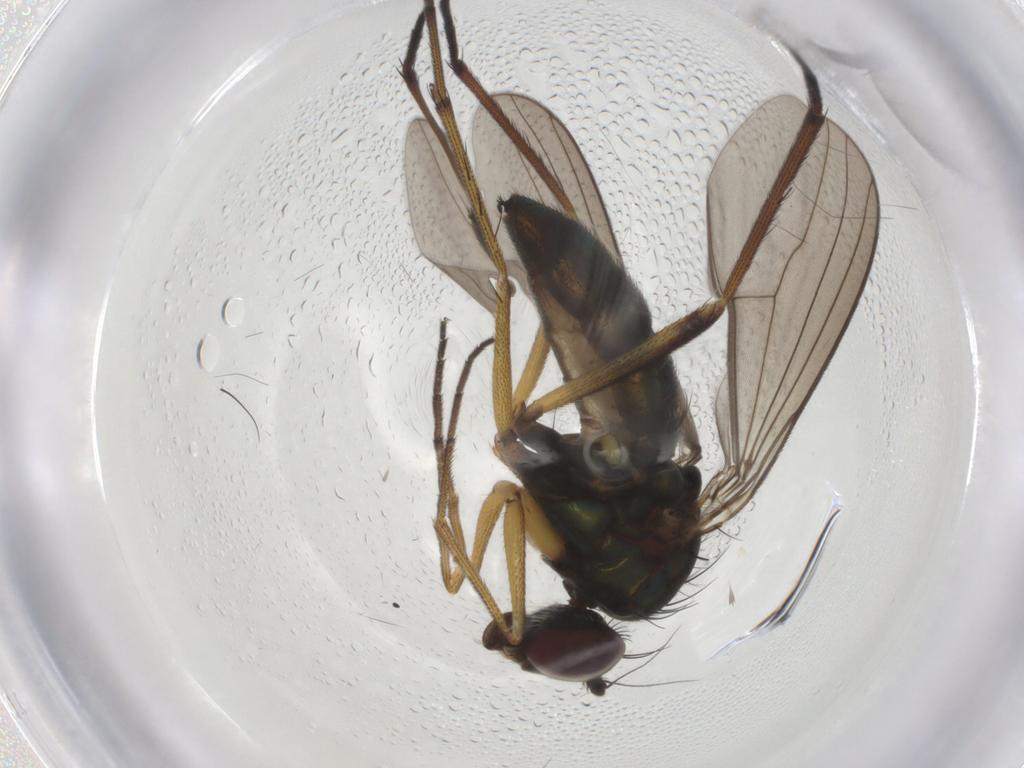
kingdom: Animalia
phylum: Arthropoda
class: Insecta
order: Diptera
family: Dolichopodidae
